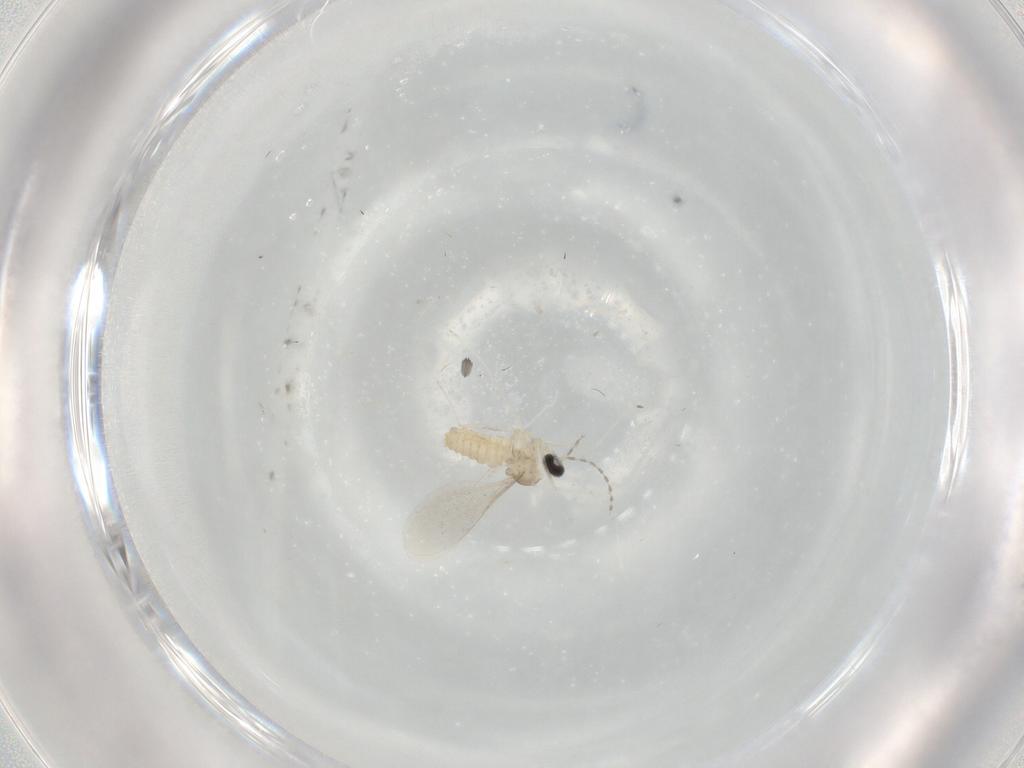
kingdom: Animalia
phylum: Arthropoda
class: Insecta
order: Diptera
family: Cecidomyiidae
